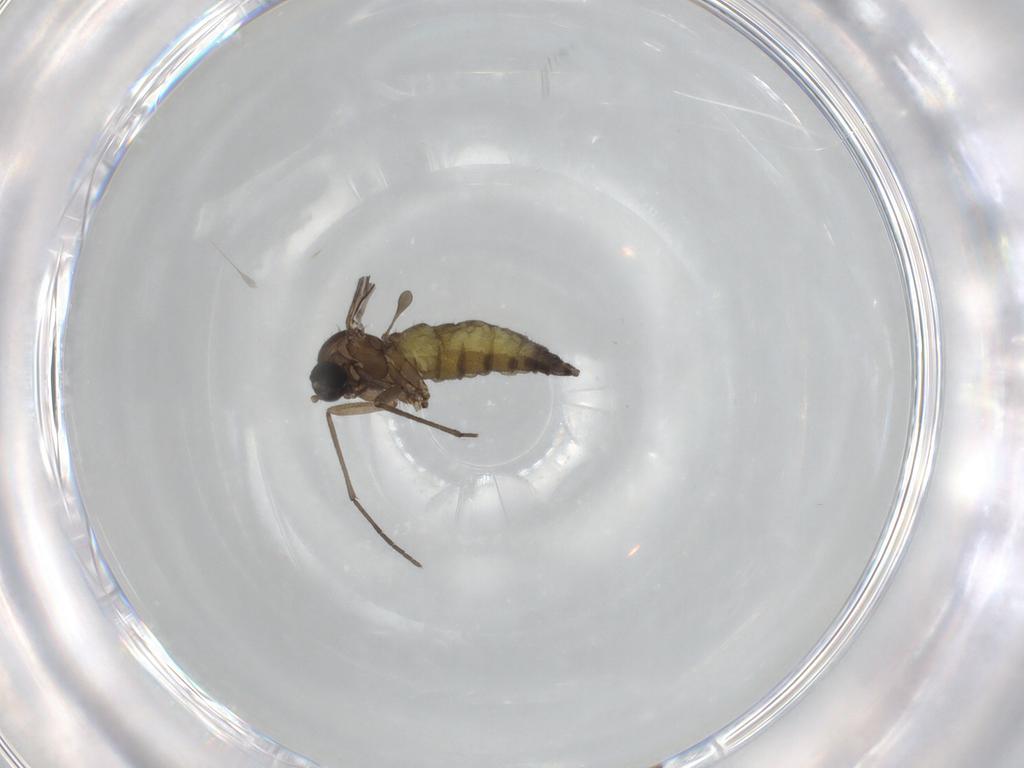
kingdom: Animalia
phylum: Arthropoda
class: Insecta
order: Diptera
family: Sciaridae
